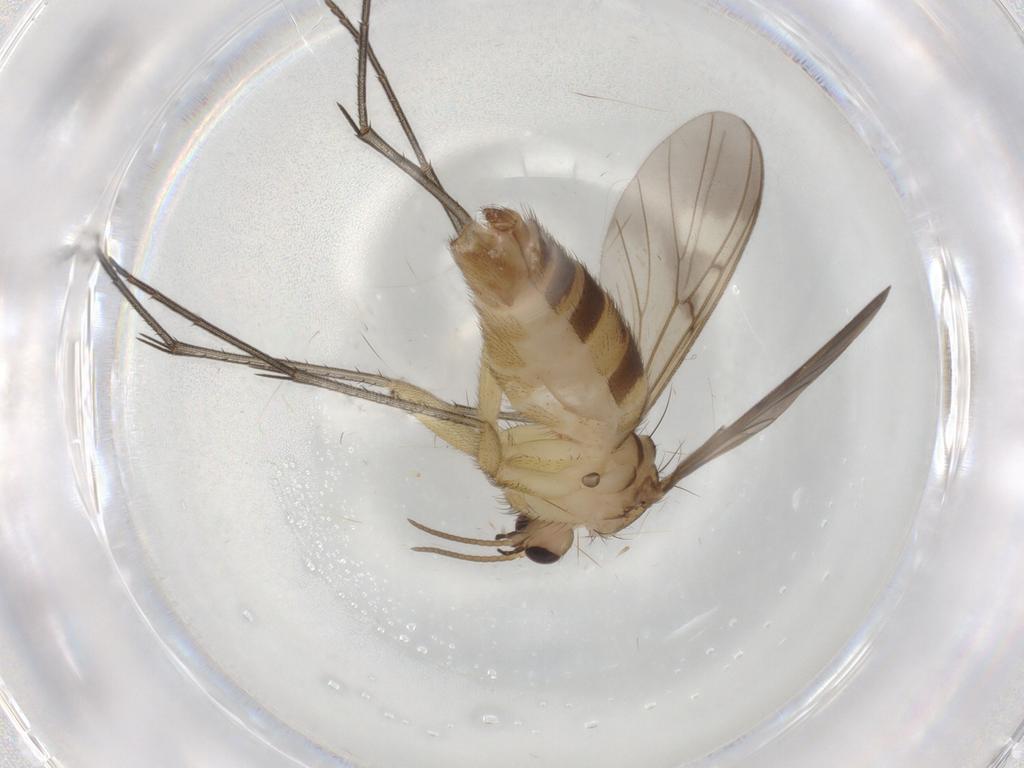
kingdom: Animalia
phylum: Arthropoda
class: Insecta
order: Diptera
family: Mycetophilidae
